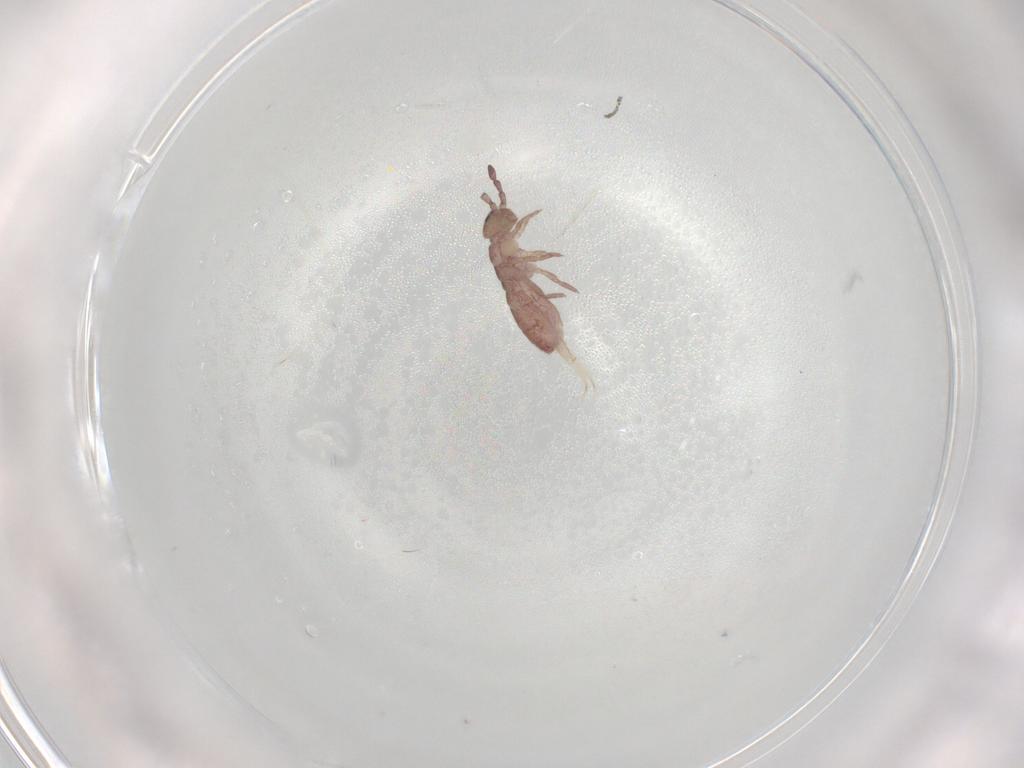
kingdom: Animalia
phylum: Arthropoda
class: Collembola
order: Entomobryomorpha
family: Isotomidae
